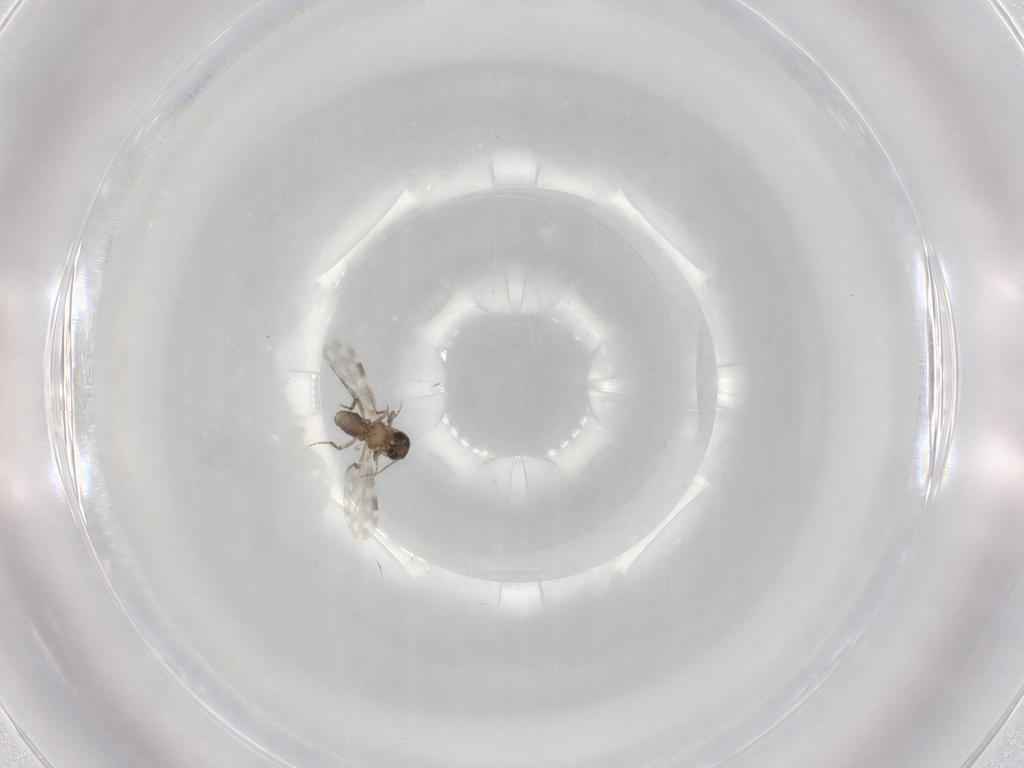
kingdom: Animalia
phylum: Arthropoda
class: Insecta
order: Diptera
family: Ceratopogonidae
